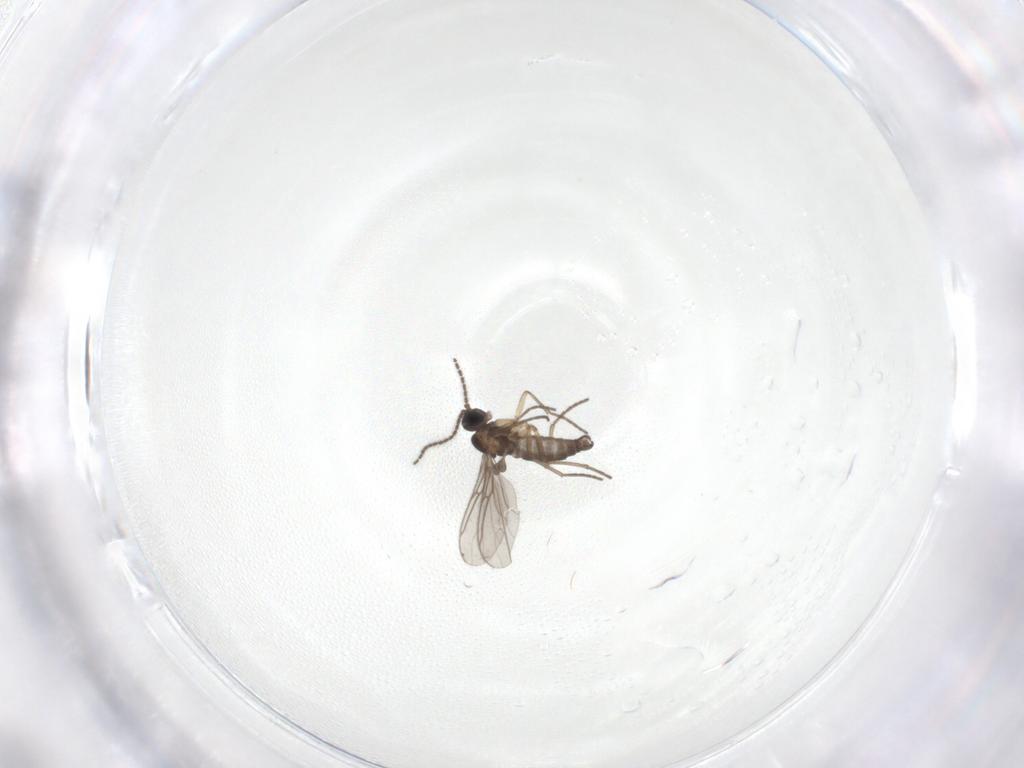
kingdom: Animalia
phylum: Arthropoda
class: Insecta
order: Diptera
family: Sciaridae
